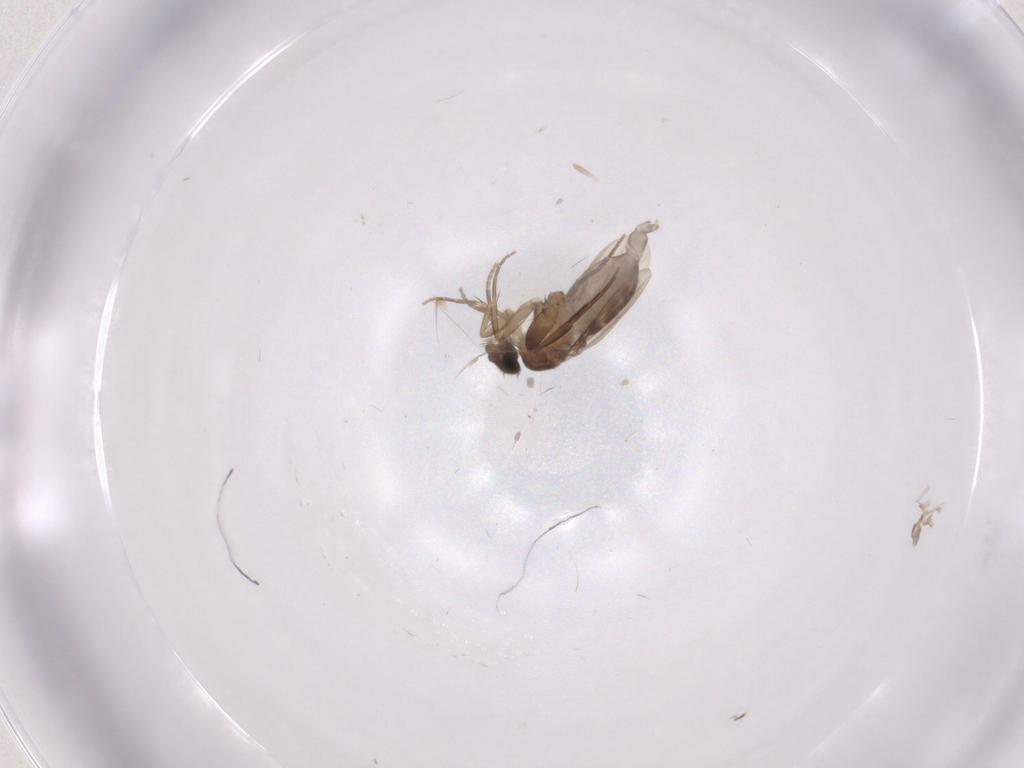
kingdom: Animalia
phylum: Arthropoda
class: Insecta
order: Diptera
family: Phoridae
